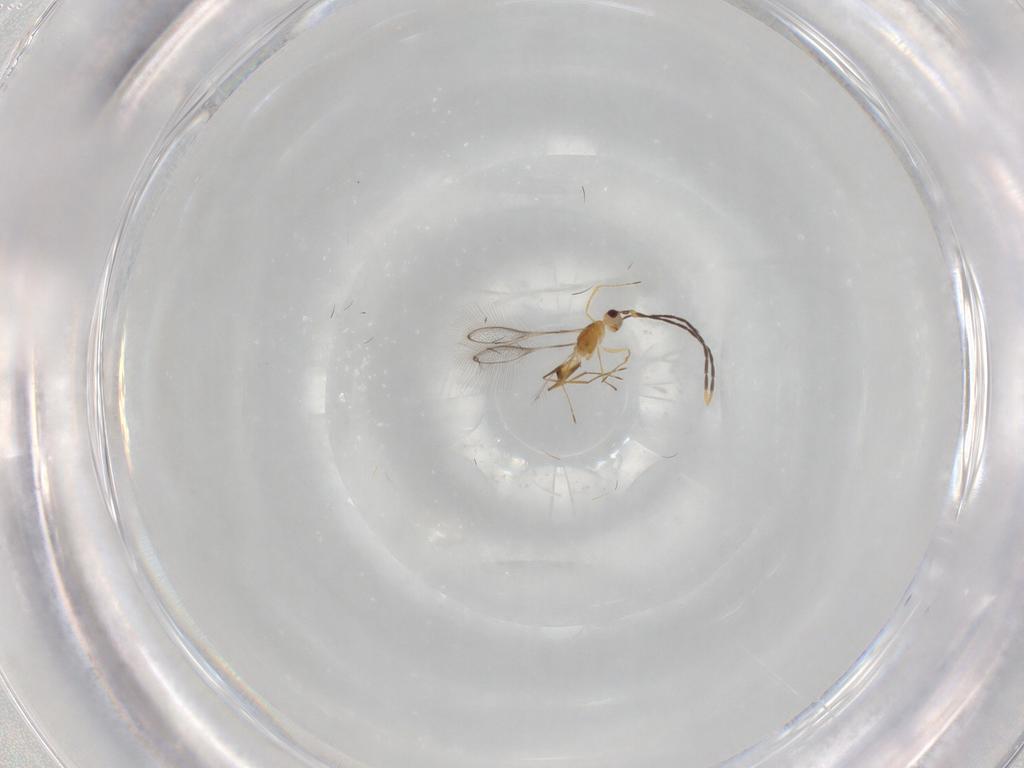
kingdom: Animalia
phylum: Arthropoda
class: Insecta
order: Hymenoptera
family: Mymaridae
